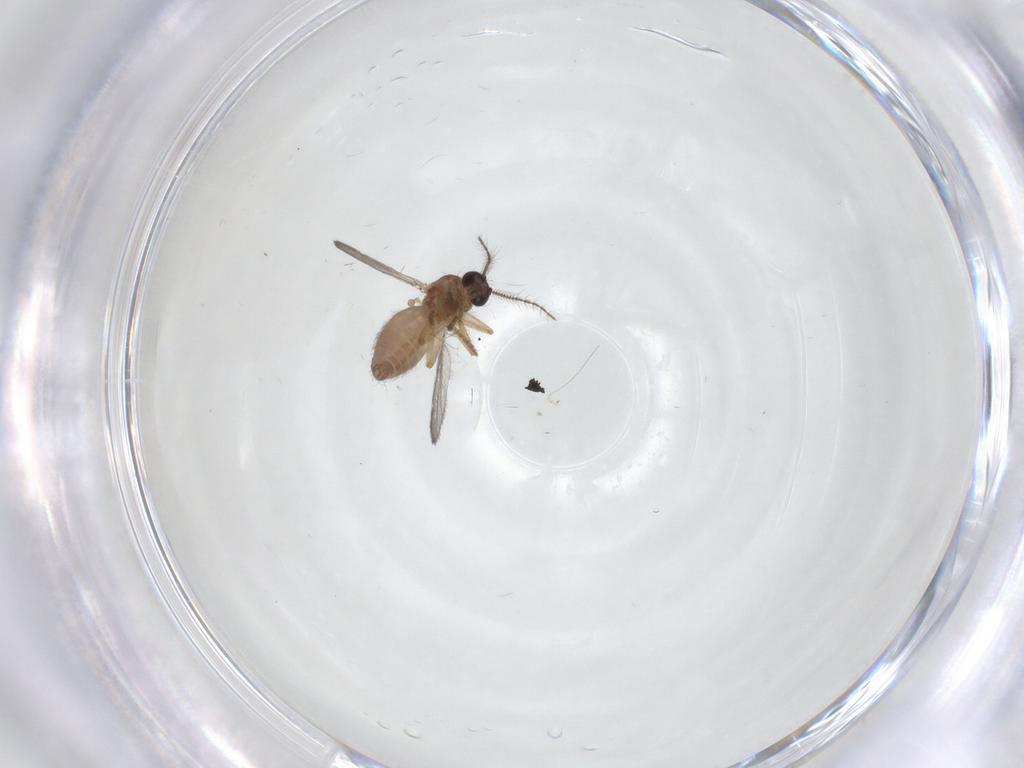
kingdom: Animalia
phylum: Arthropoda
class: Insecta
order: Diptera
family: Ceratopogonidae
